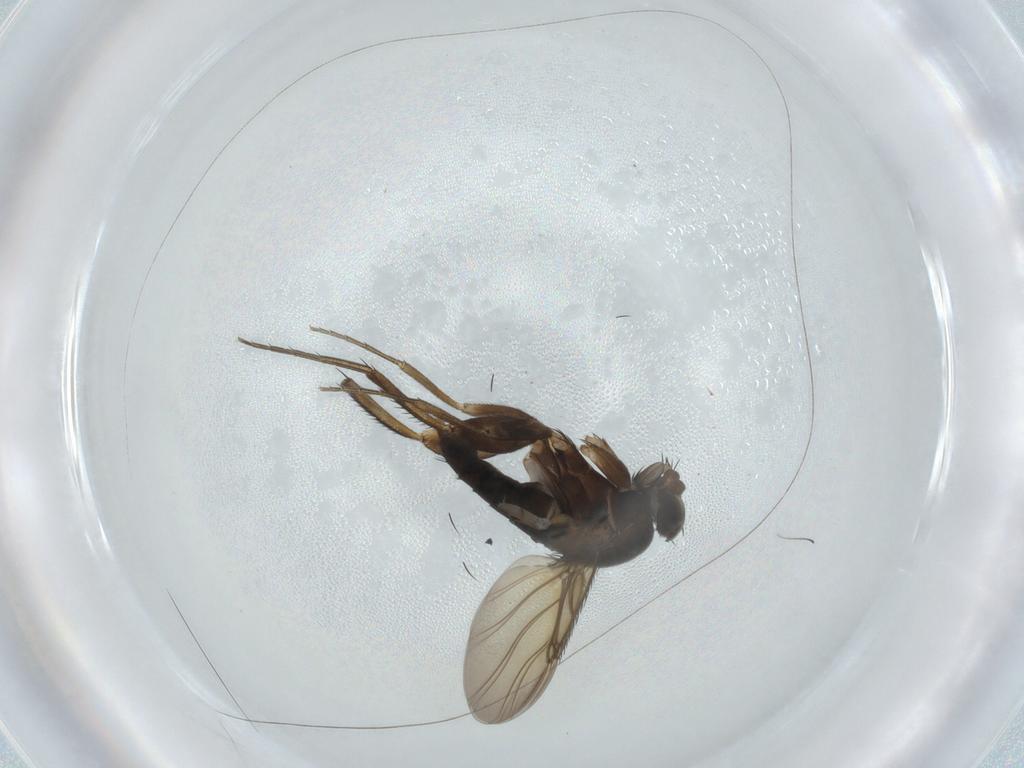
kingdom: Animalia
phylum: Arthropoda
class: Insecta
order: Diptera
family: Phoridae
